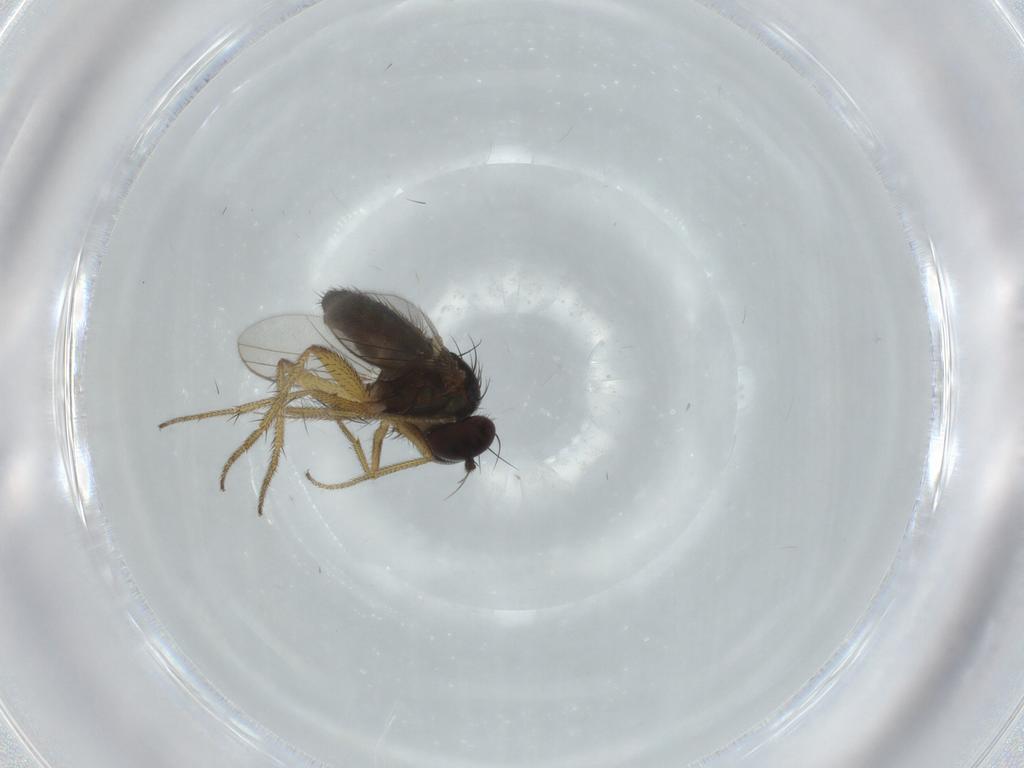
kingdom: Animalia
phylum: Arthropoda
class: Insecta
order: Diptera
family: Dolichopodidae
